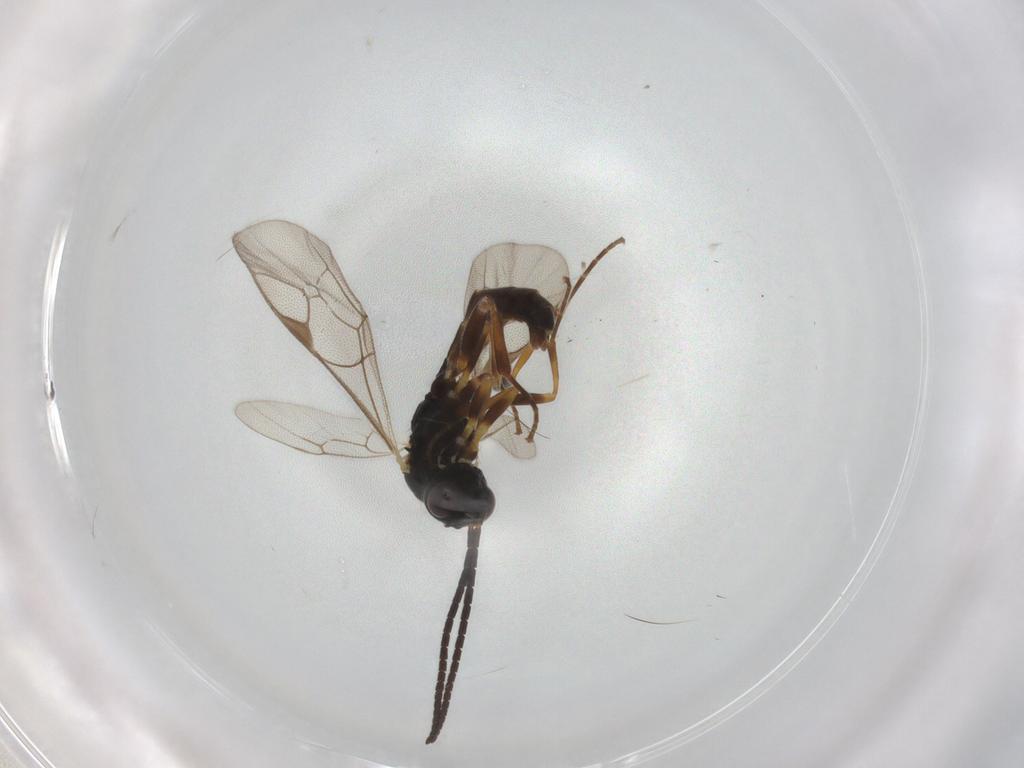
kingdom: Animalia
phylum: Arthropoda
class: Insecta
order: Hymenoptera
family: Ichneumonidae
